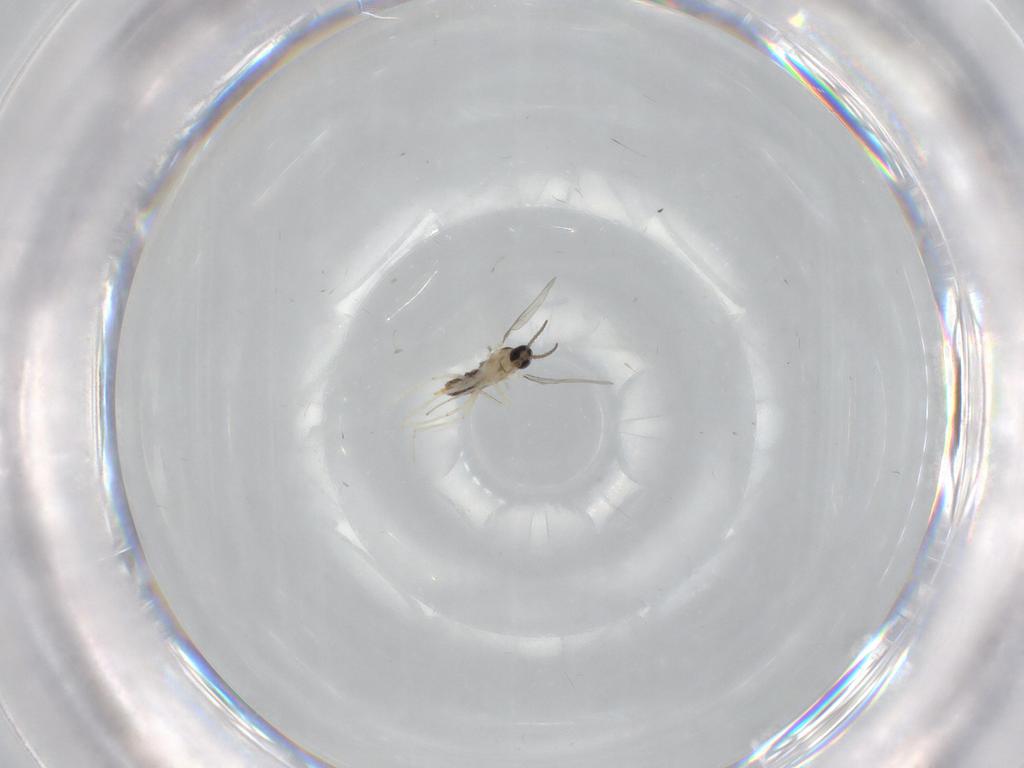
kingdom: Animalia
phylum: Arthropoda
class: Insecta
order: Diptera
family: Cecidomyiidae
